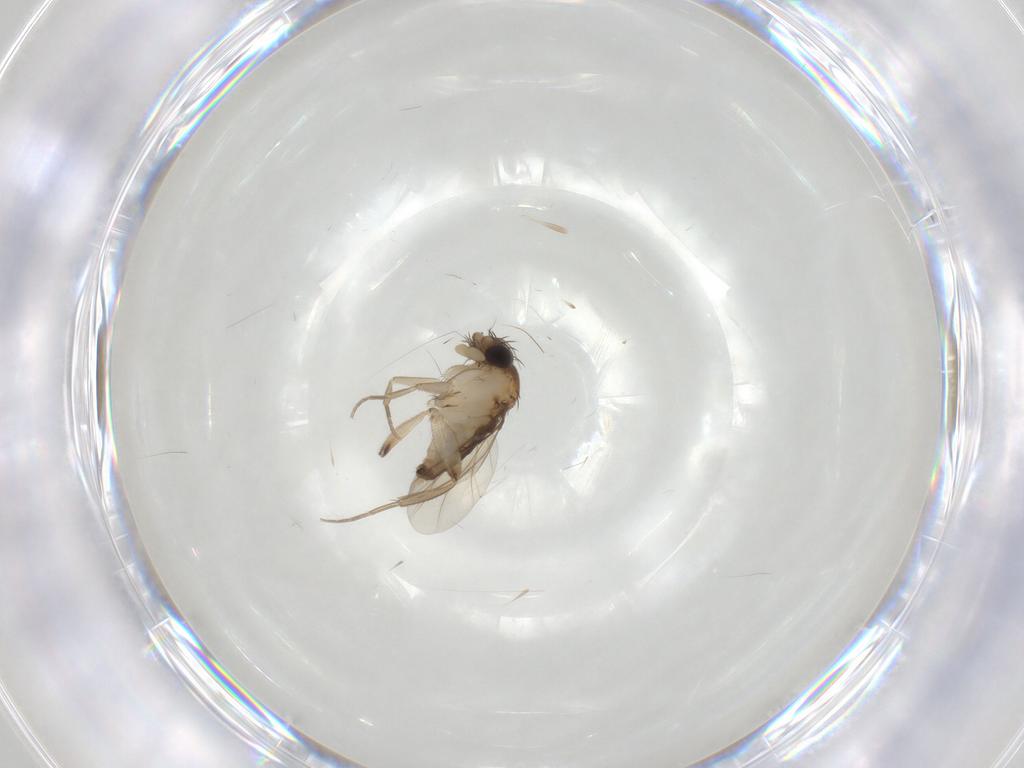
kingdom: Animalia
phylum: Arthropoda
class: Insecta
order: Diptera
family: Phoridae
